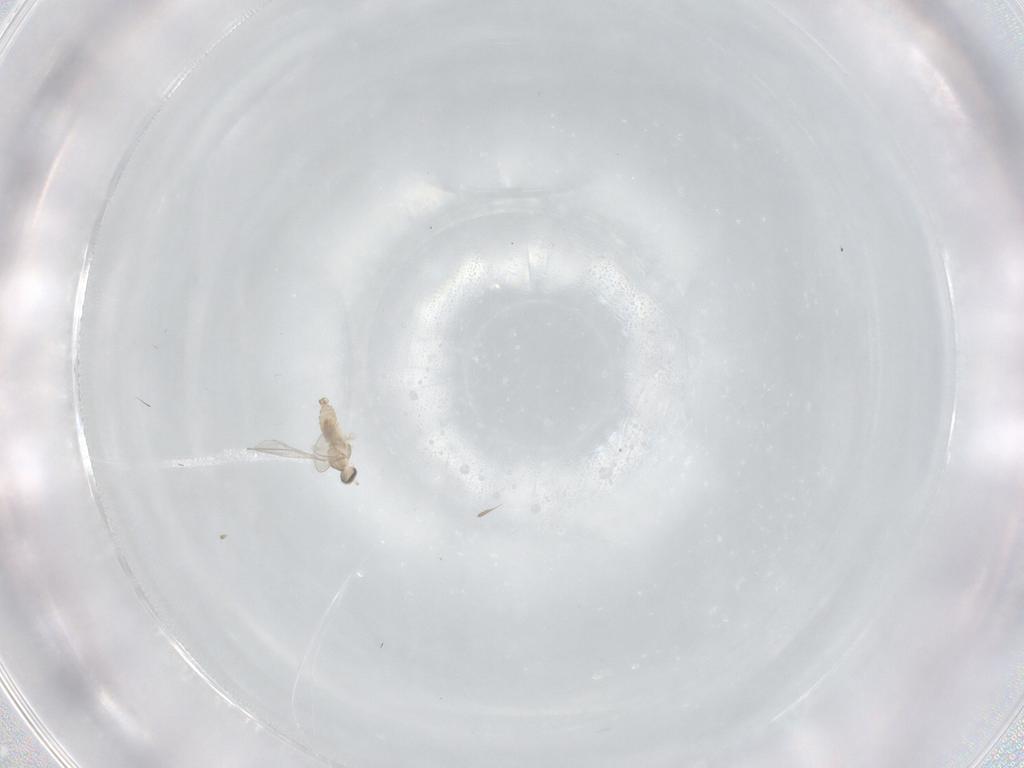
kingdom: Animalia
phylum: Arthropoda
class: Insecta
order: Diptera
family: Cecidomyiidae
